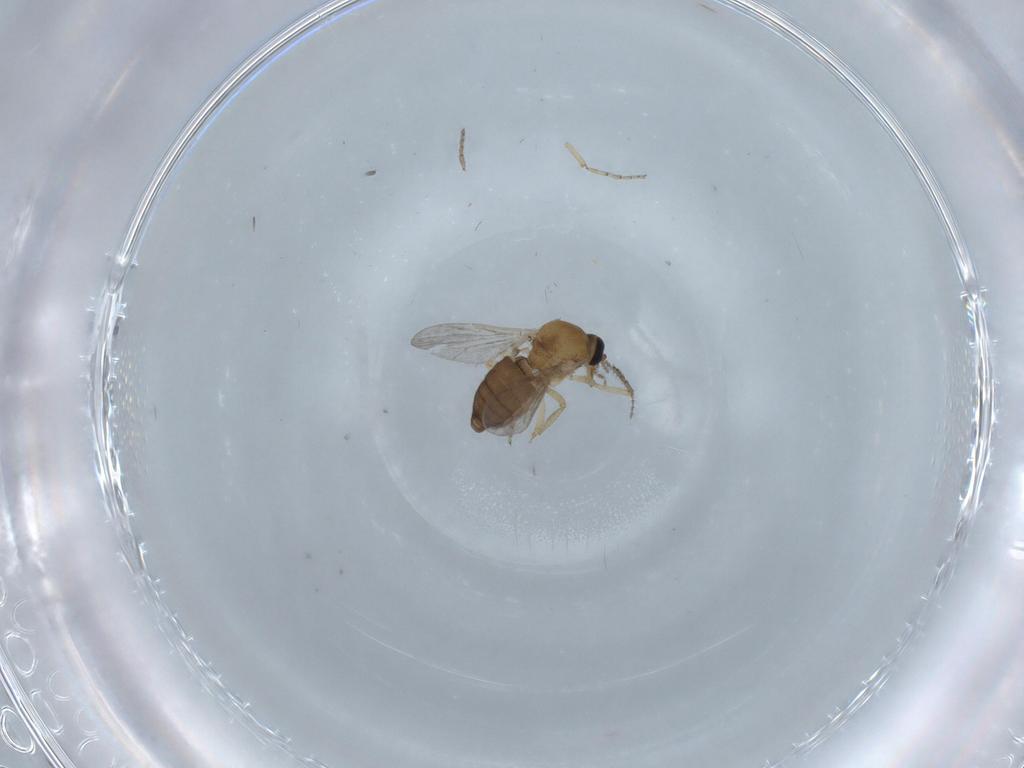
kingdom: Animalia
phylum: Arthropoda
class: Insecta
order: Diptera
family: Ceratopogonidae
